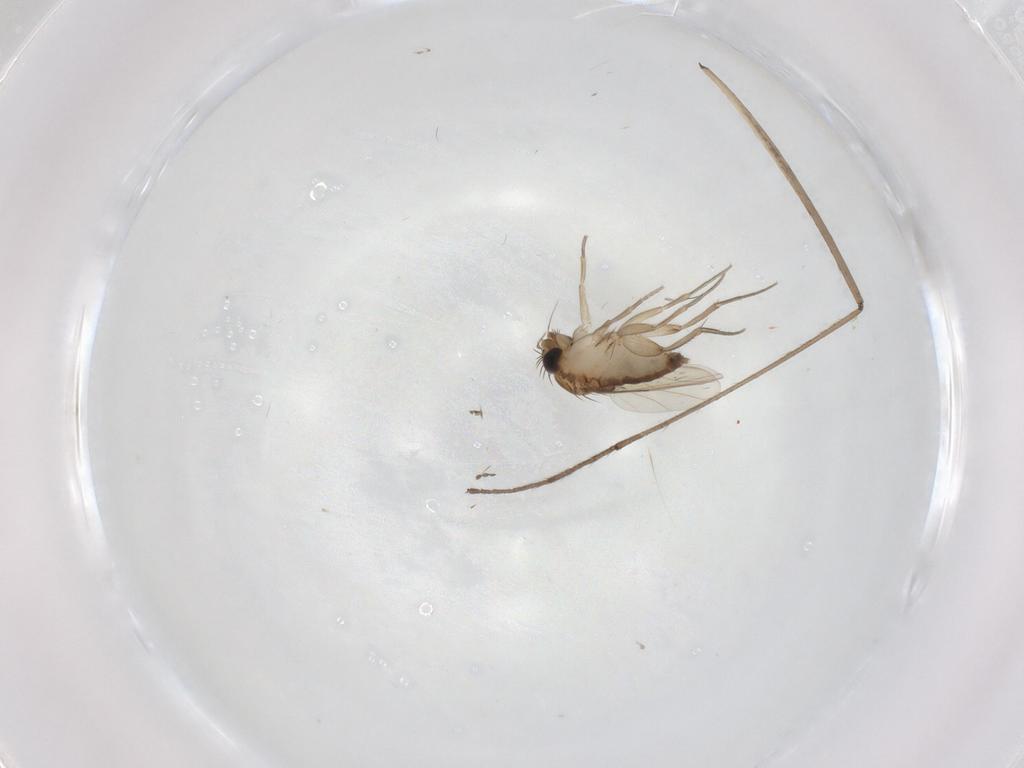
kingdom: Animalia
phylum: Arthropoda
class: Insecta
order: Diptera
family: Phoridae
